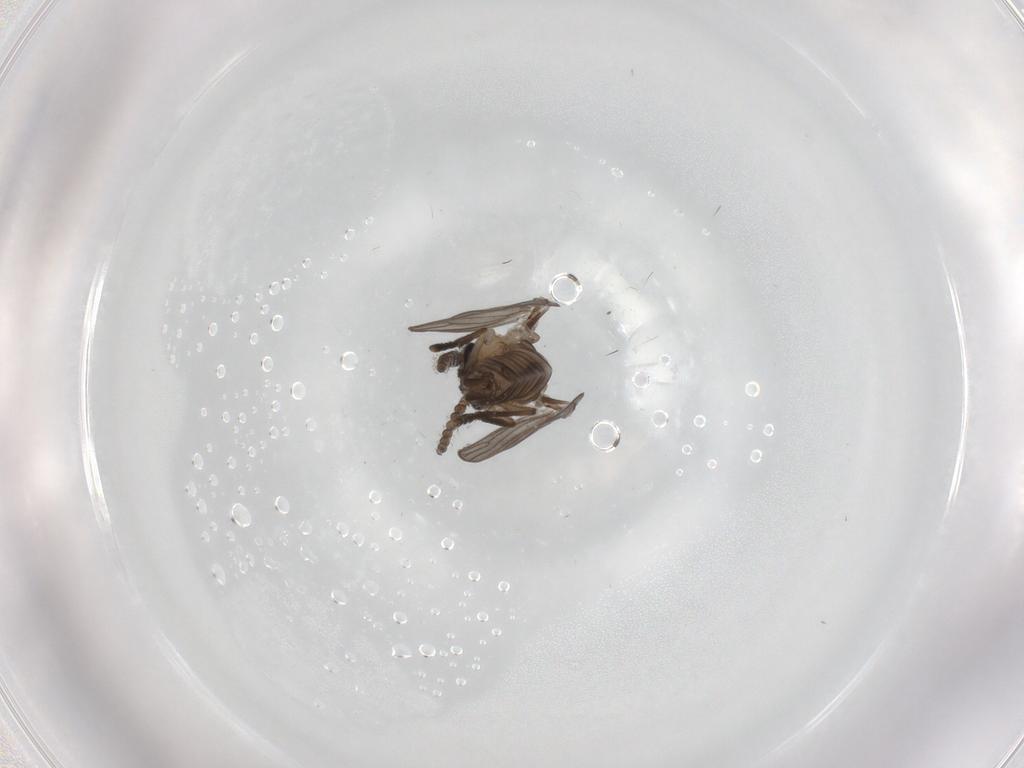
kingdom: Animalia
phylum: Arthropoda
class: Insecta
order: Diptera
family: Psychodidae
